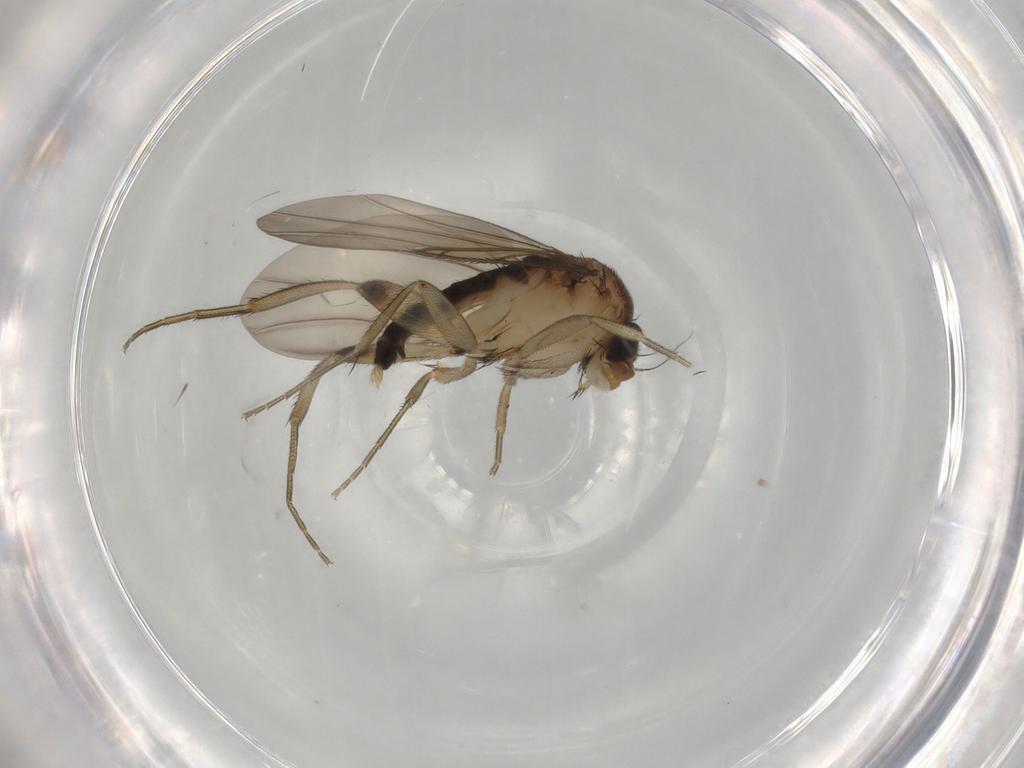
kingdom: Animalia
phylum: Arthropoda
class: Insecta
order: Diptera
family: Phoridae
